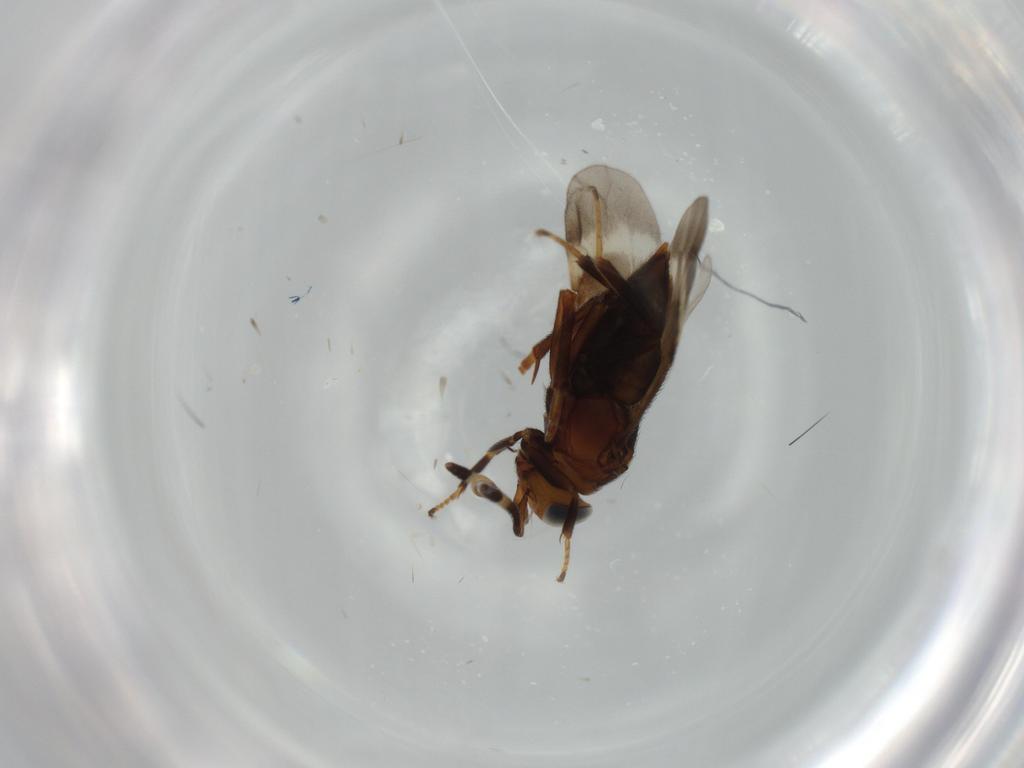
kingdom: Animalia
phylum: Arthropoda
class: Insecta
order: Hymenoptera
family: Encyrtidae
